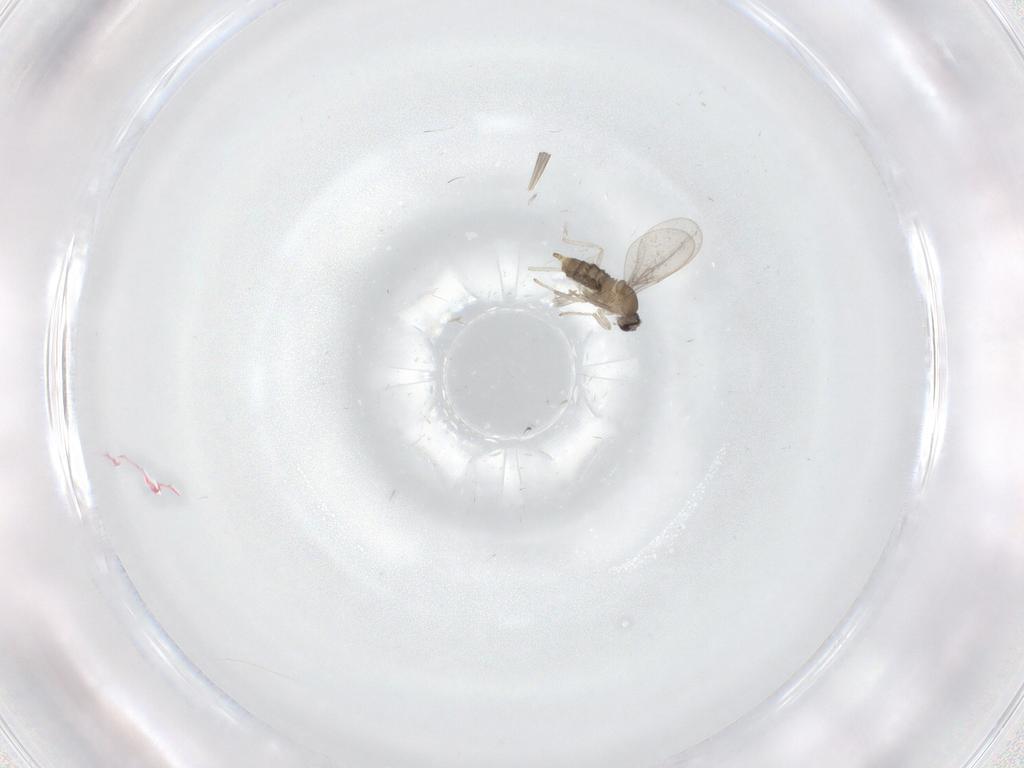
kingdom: Animalia
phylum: Arthropoda
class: Insecta
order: Diptera
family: Cecidomyiidae
